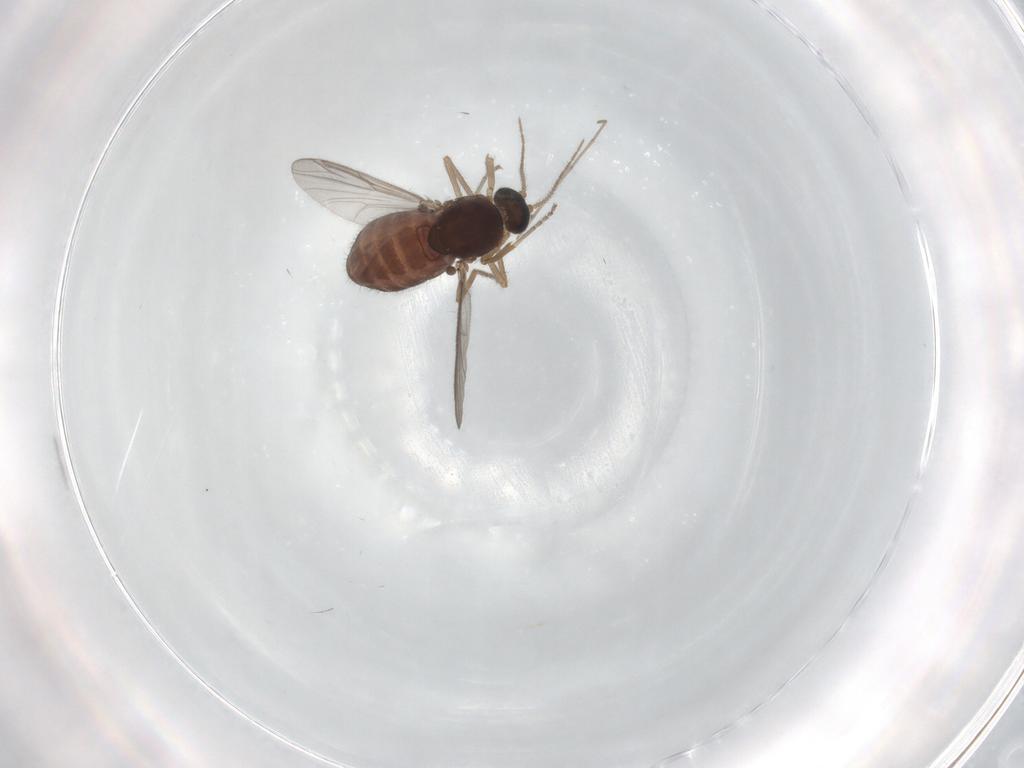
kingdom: Animalia
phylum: Arthropoda
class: Insecta
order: Diptera
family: Ceratopogonidae
